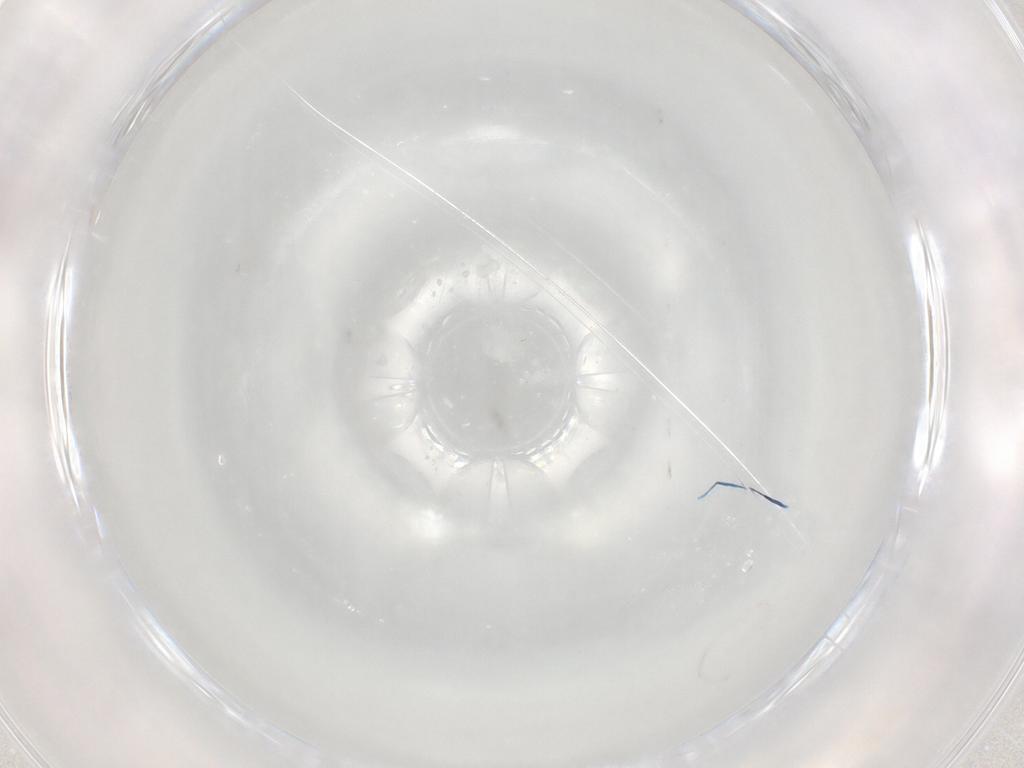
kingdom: Animalia
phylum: Arthropoda
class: Insecta
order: Psocodea
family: Liposcelididae
